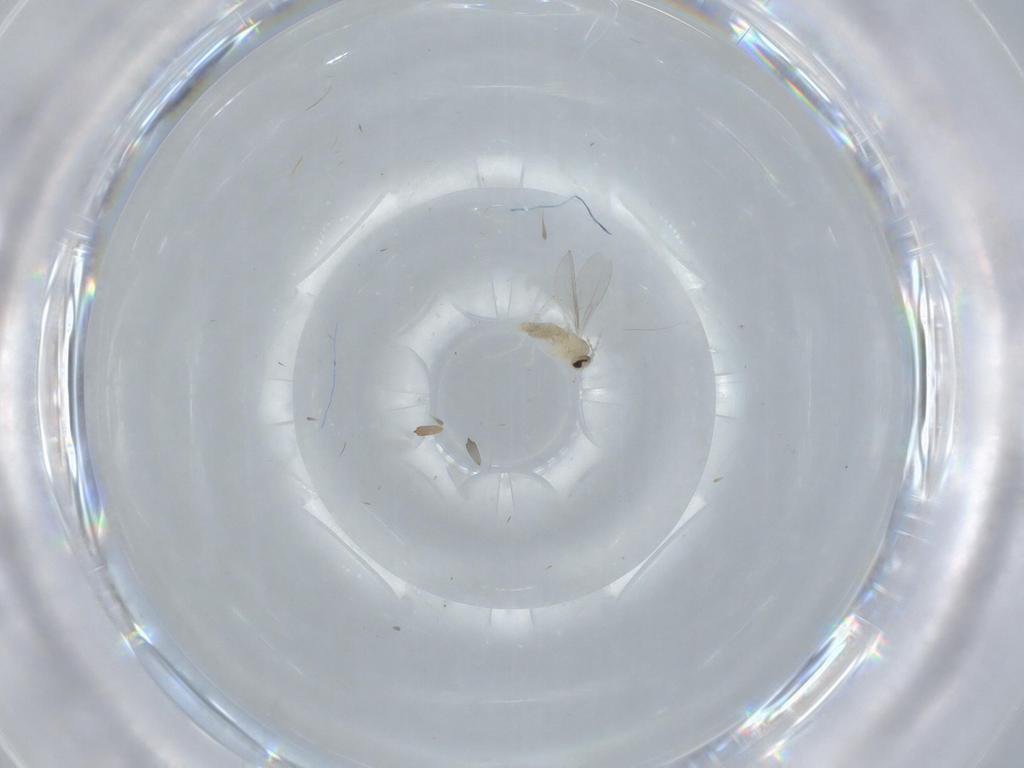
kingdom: Animalia
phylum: Arthropoda
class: Insecta
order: Diptera
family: Cecidomyiidae
